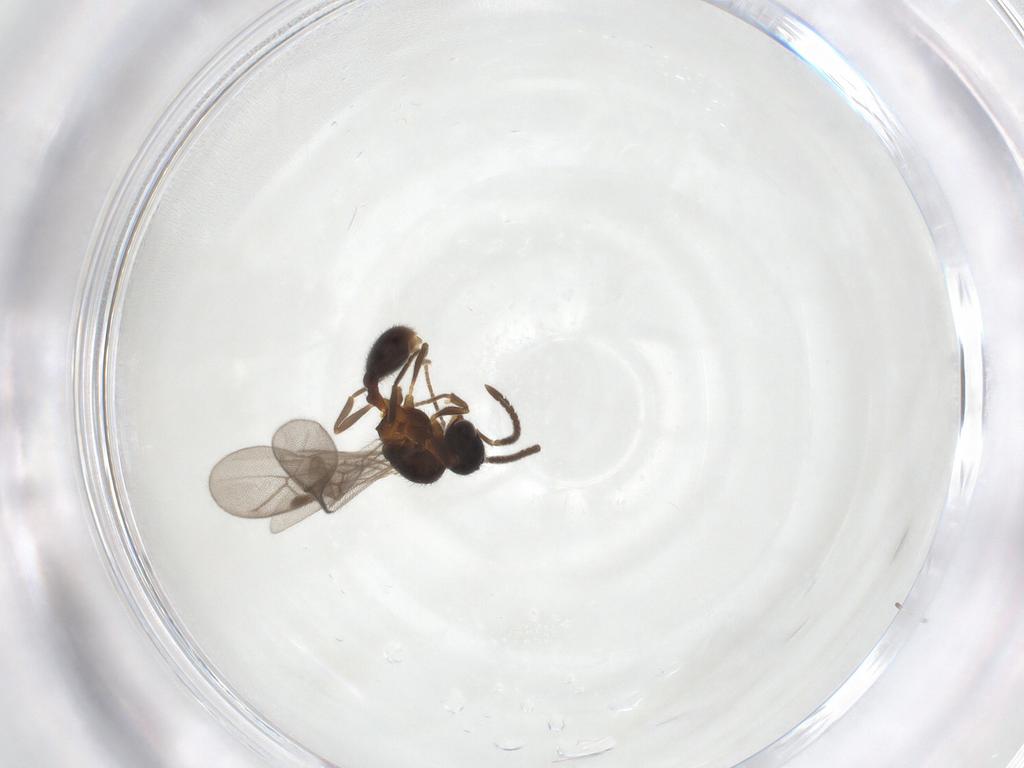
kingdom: Animalia
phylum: Arthropoda
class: Insecta
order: Hymenoptera
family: Formicidae
